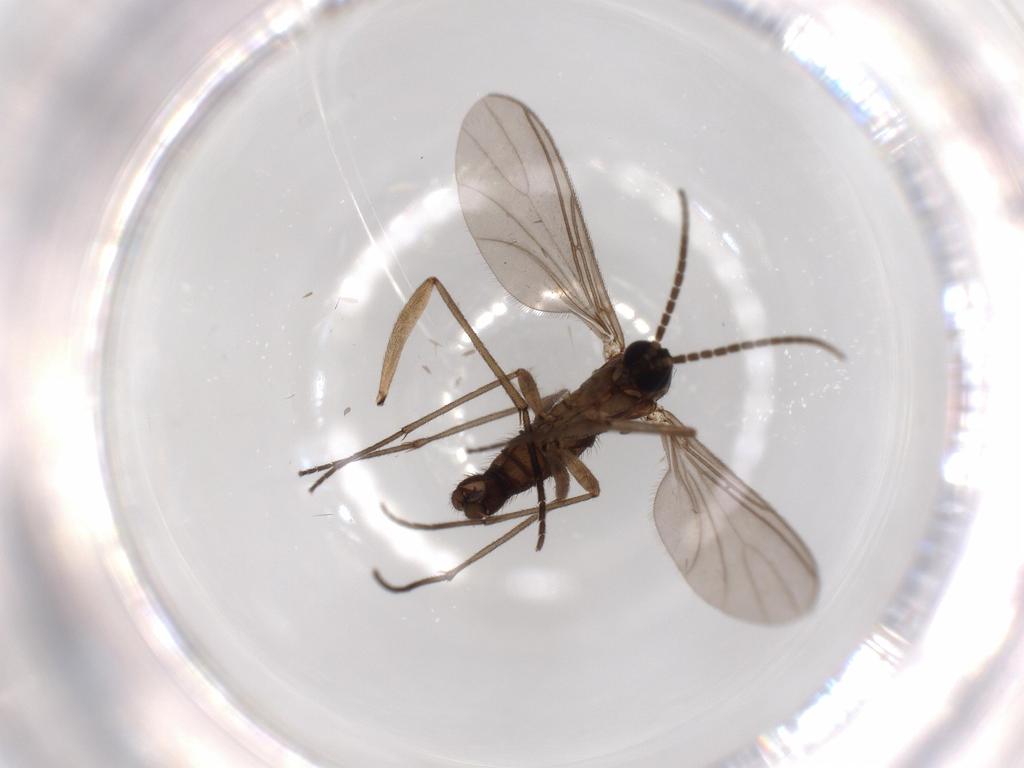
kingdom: Animalia
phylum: Arthropoda
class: Insecta
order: Diptera
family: Sciaridae
